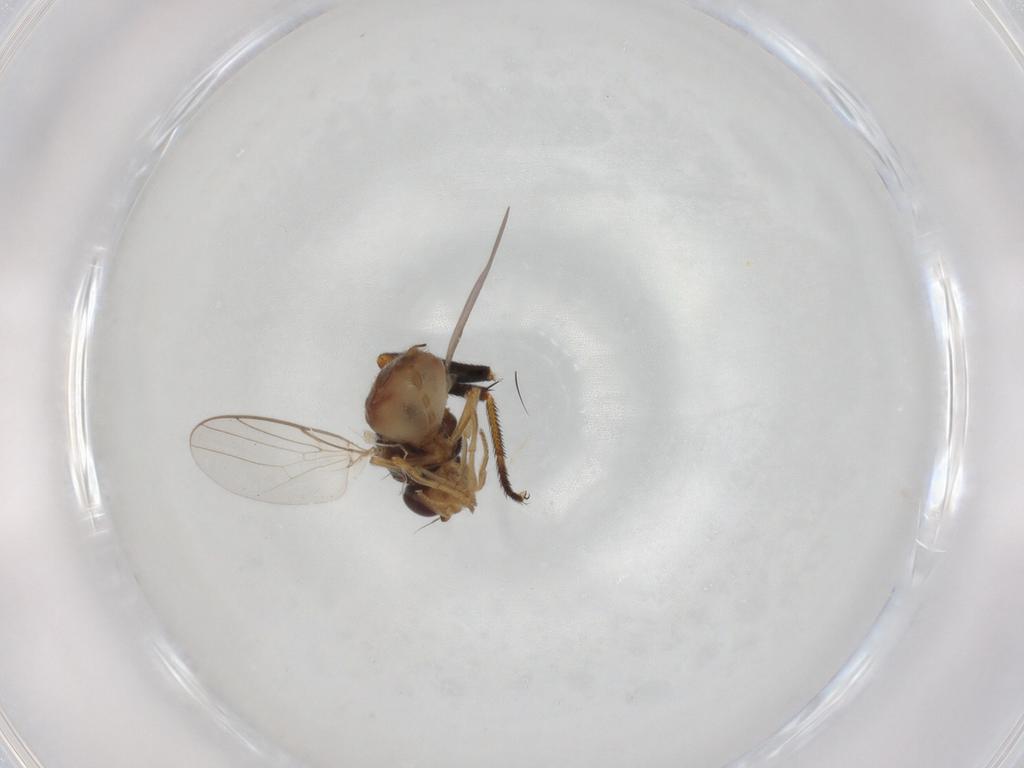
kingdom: Animalia
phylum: Arthropoda
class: Insecta
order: Diptera
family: Chloropidae
